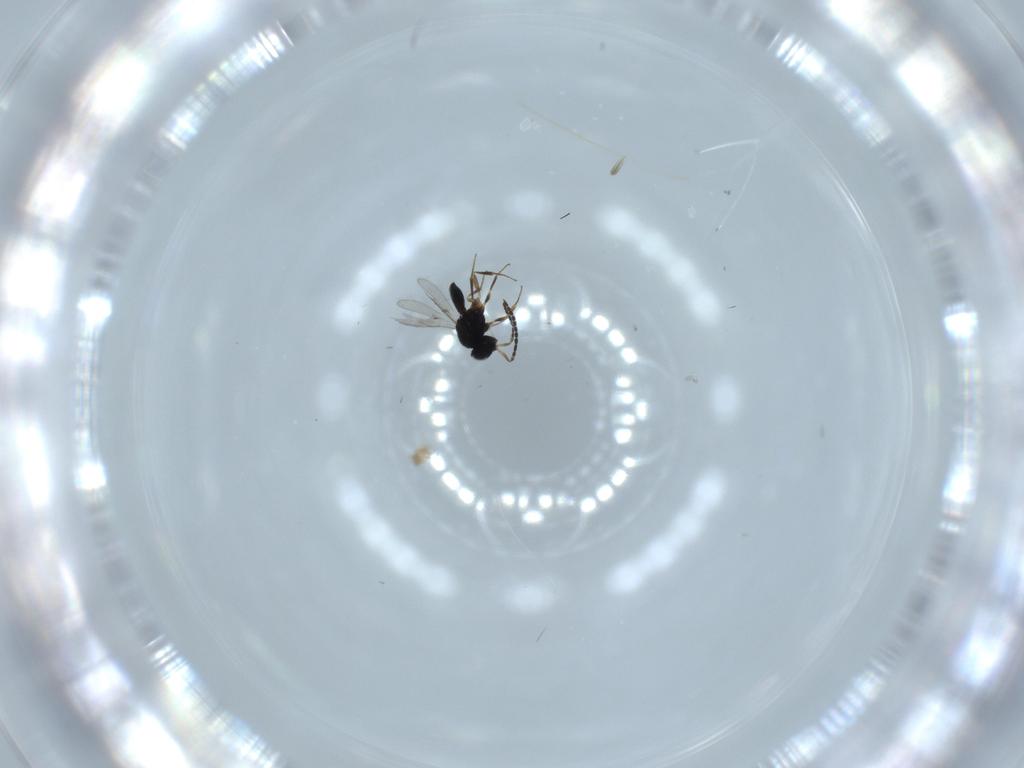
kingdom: Animalia
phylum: Arthropoda
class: Insecta
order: Hymenoptera
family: Scelionidae
